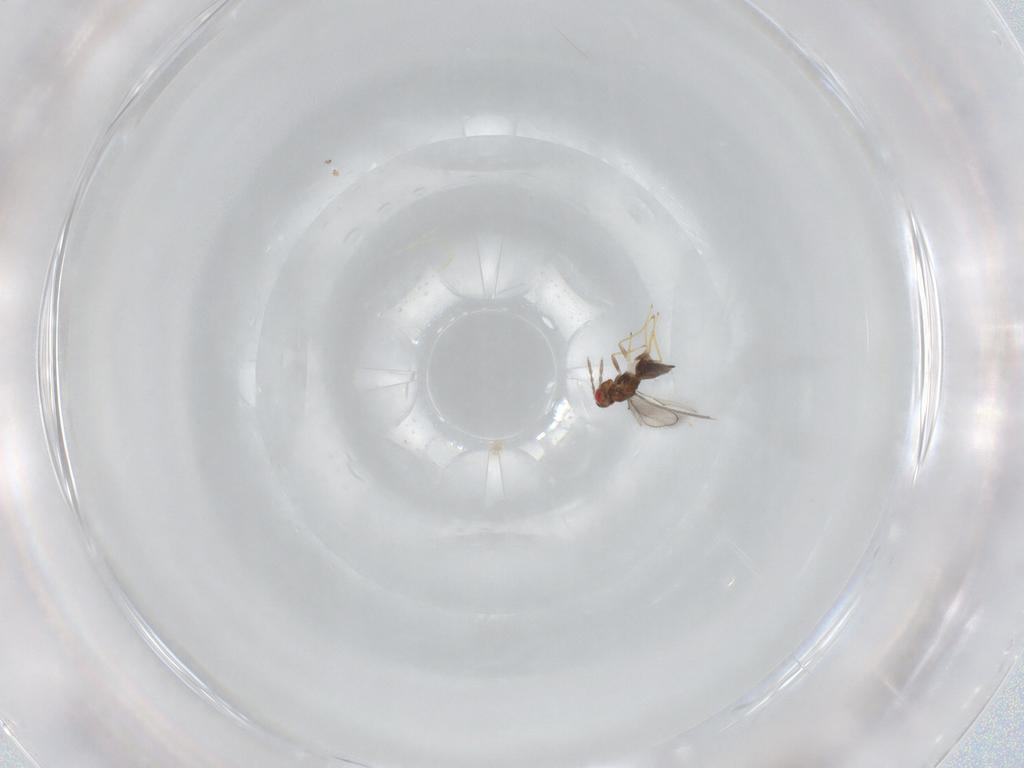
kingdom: Animalia
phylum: Arthropoda
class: Insecta
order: Hymenoptera
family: Eulophidae
